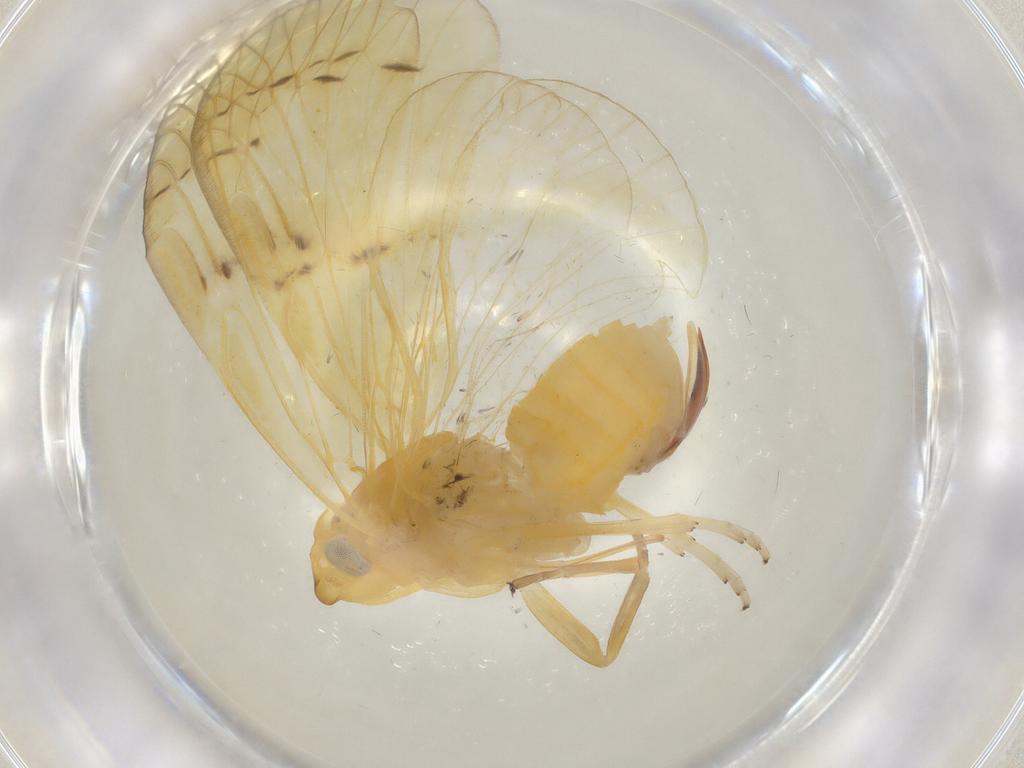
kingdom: Animalia
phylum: Arthropoda
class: Insecta
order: Hemiptera
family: Cixiidae
